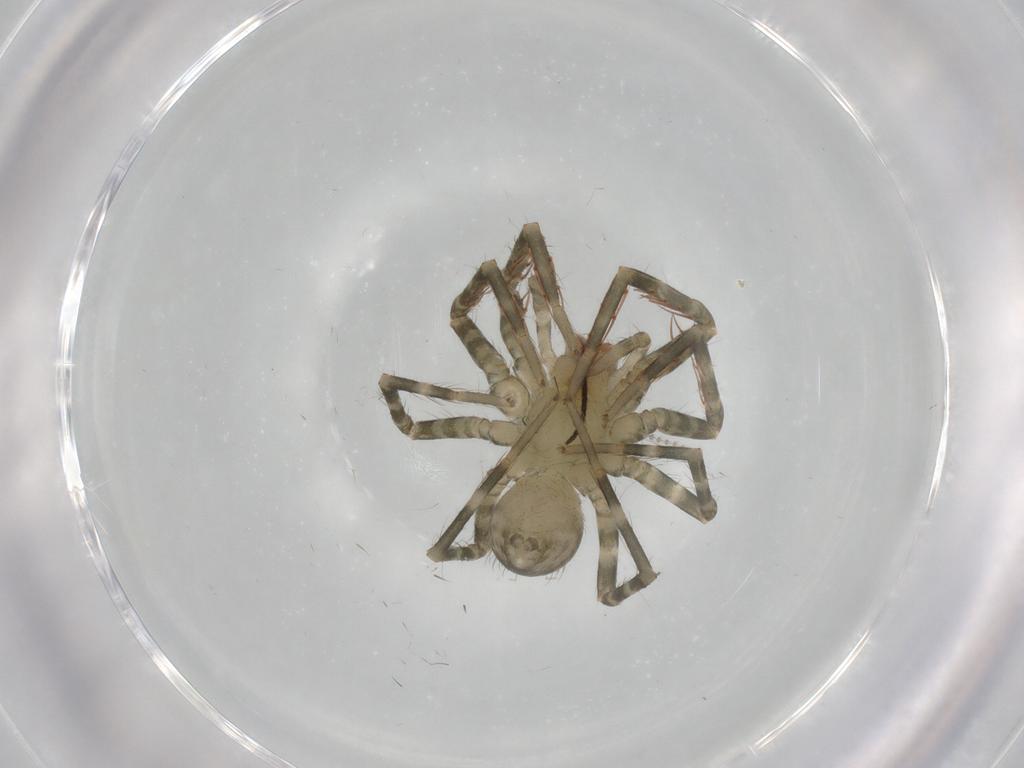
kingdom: Animalia
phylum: Arthropoda
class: Arachnida
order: Araneae
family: Ctenidae
